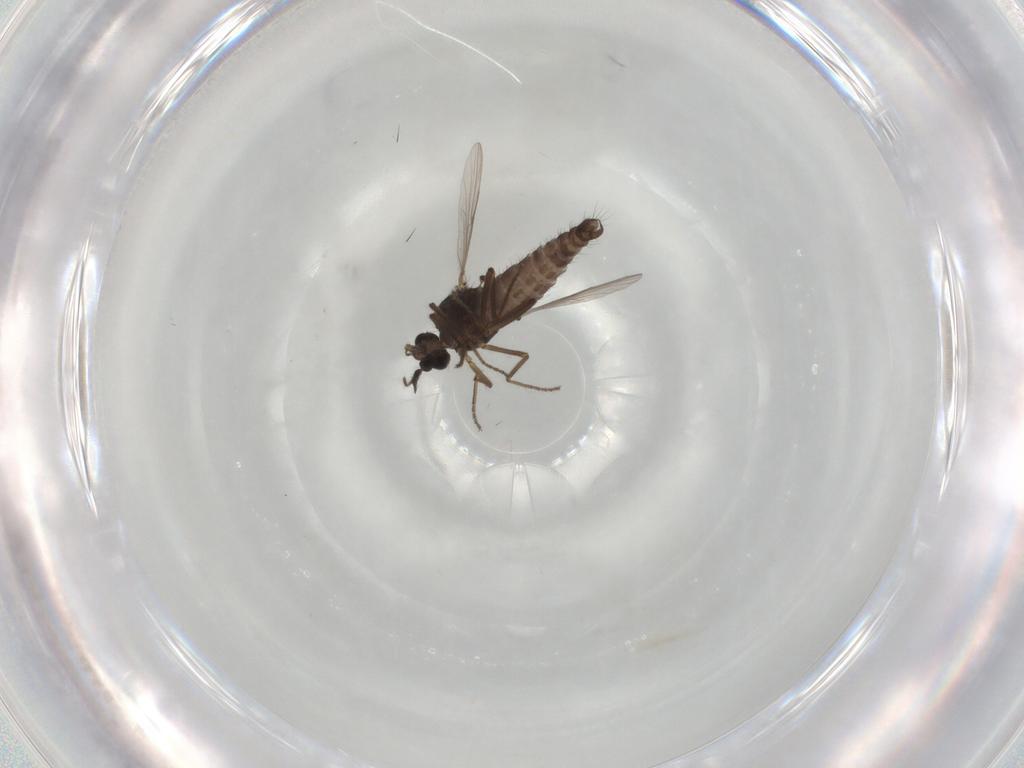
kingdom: Animalia
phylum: Arthropoda
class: Insecta
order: Diptera
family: Ceratopogonidae
